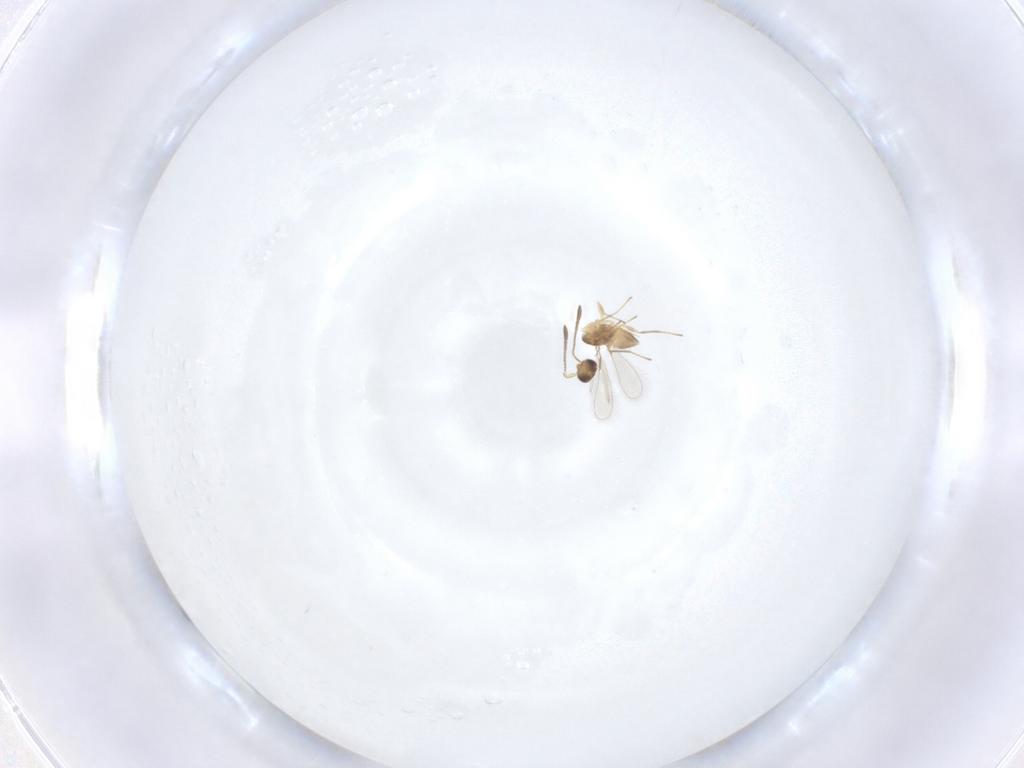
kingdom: Animalia
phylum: Arthropoda
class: Insecta
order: Hymenoptera
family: Mymaridae
